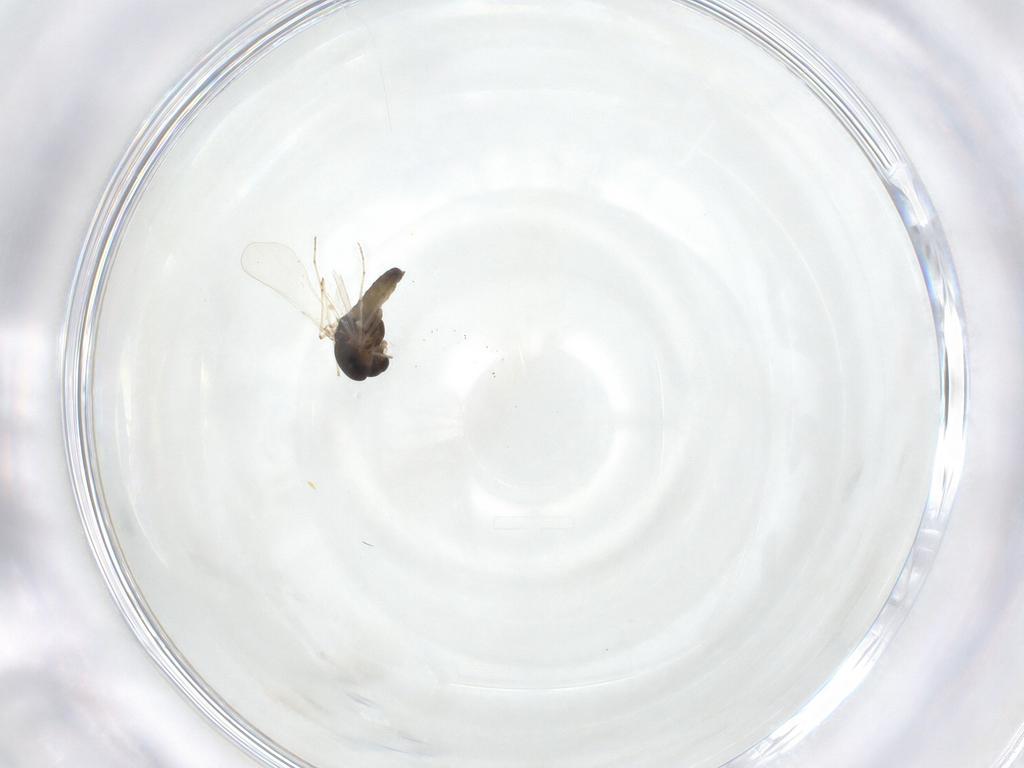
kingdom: Animalia
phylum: Arthropoda
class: Insecta
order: Diptera
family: Chironomidae
